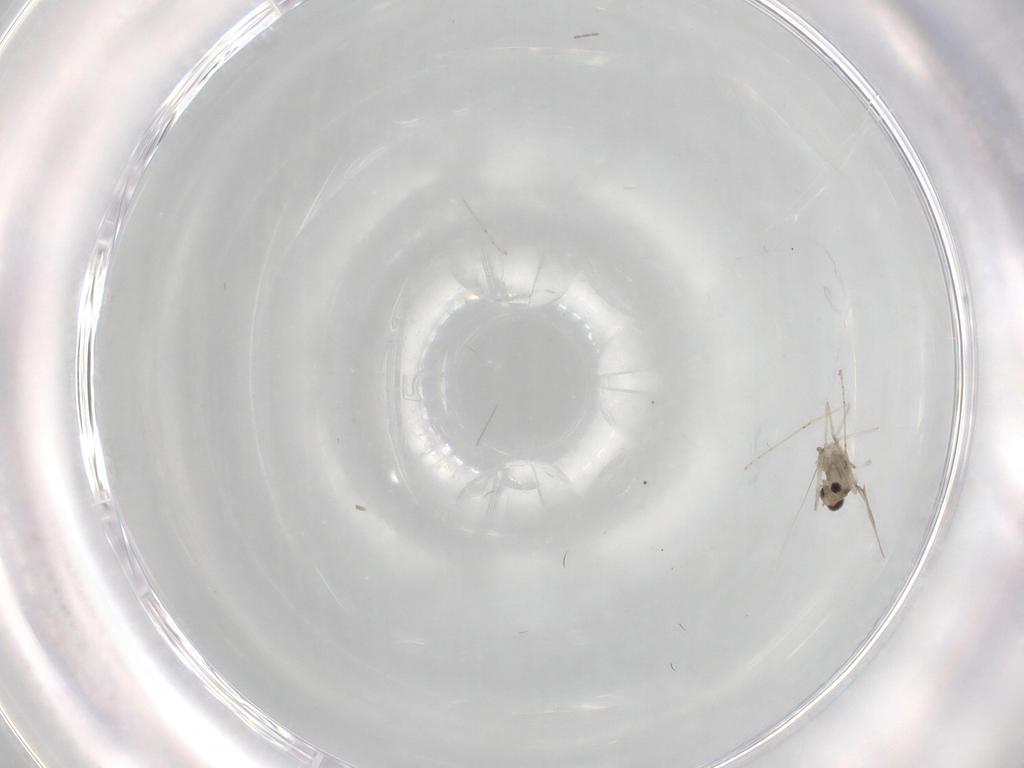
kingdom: Animalia
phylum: Arthropoda
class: Insecta
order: Diptera
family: Cecidomyiidae
